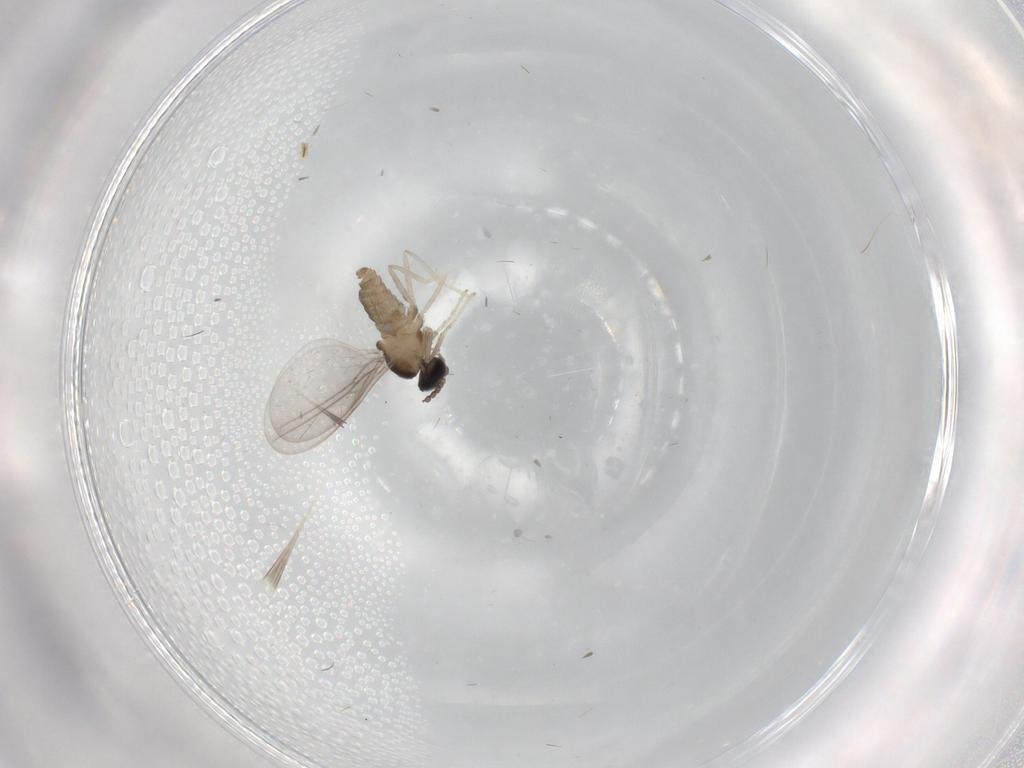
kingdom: Animalia
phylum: Arthropoda
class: Insecta
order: Diptera
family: Cecidomyiidae
